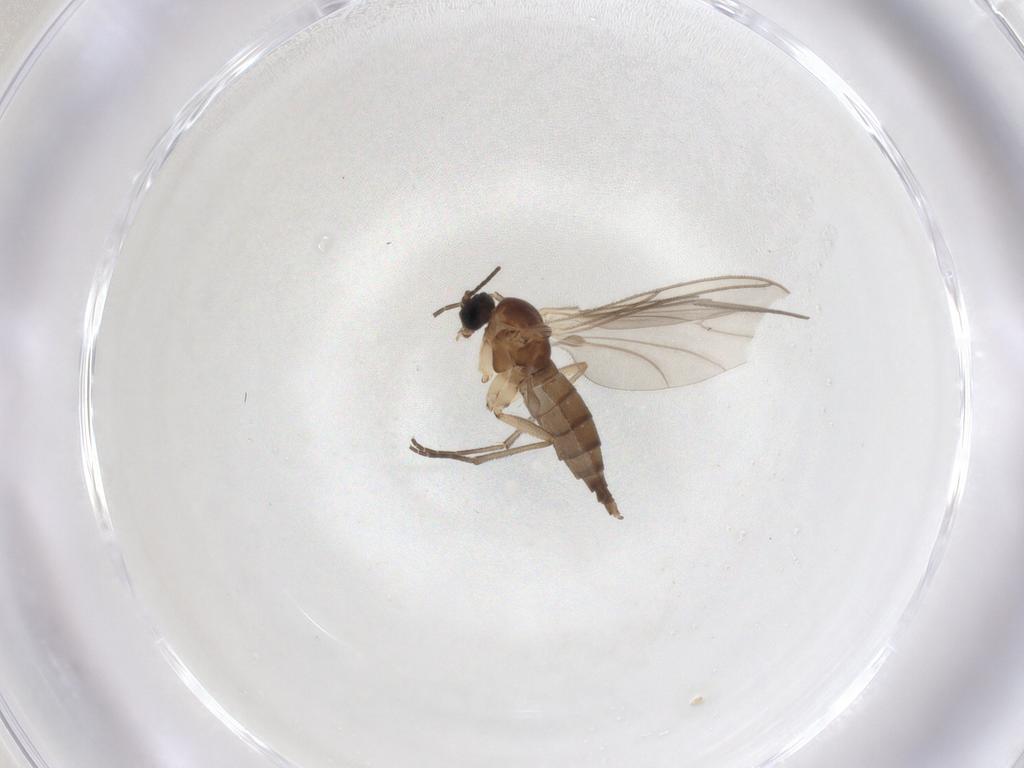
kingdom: Animalia
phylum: Arthropoda
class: Insecta
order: Diptera
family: Sciaridae
